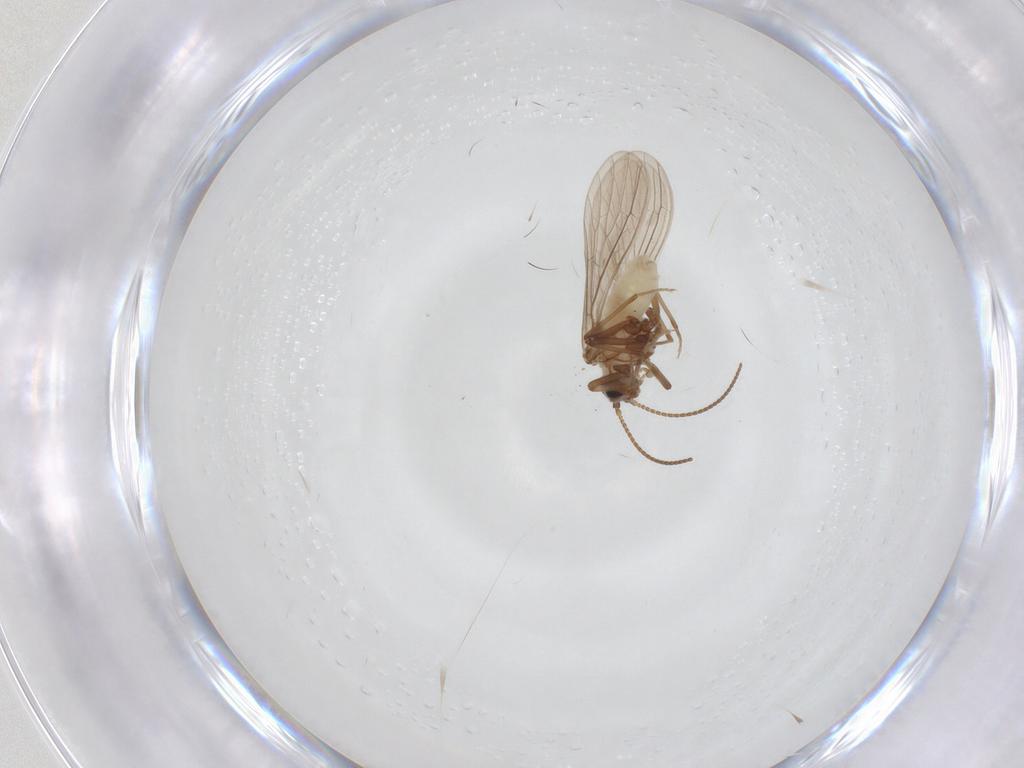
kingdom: Animalia
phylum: Arthropoda
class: Insecta
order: Neuroptera
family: Coniopterygidae
